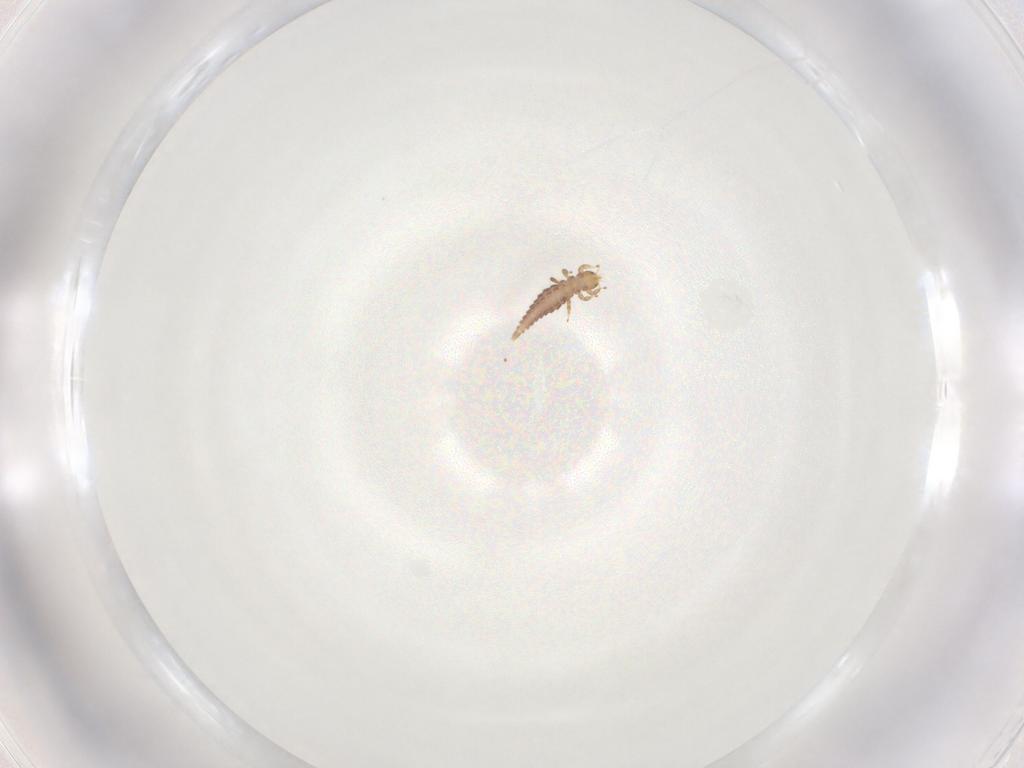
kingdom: Animalia
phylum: Arthropoda
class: Insecta
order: Neuroptera
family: Mantispidae
